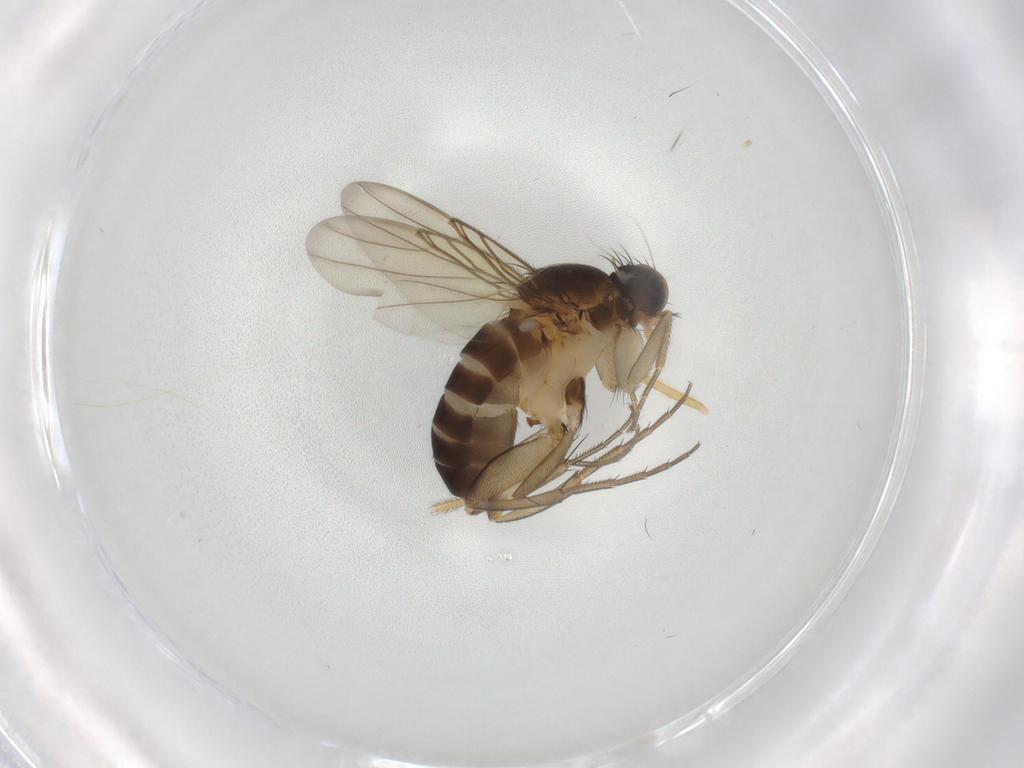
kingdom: Animalia
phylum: Arthropoda
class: Insecta
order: Diptera
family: Phoridae
